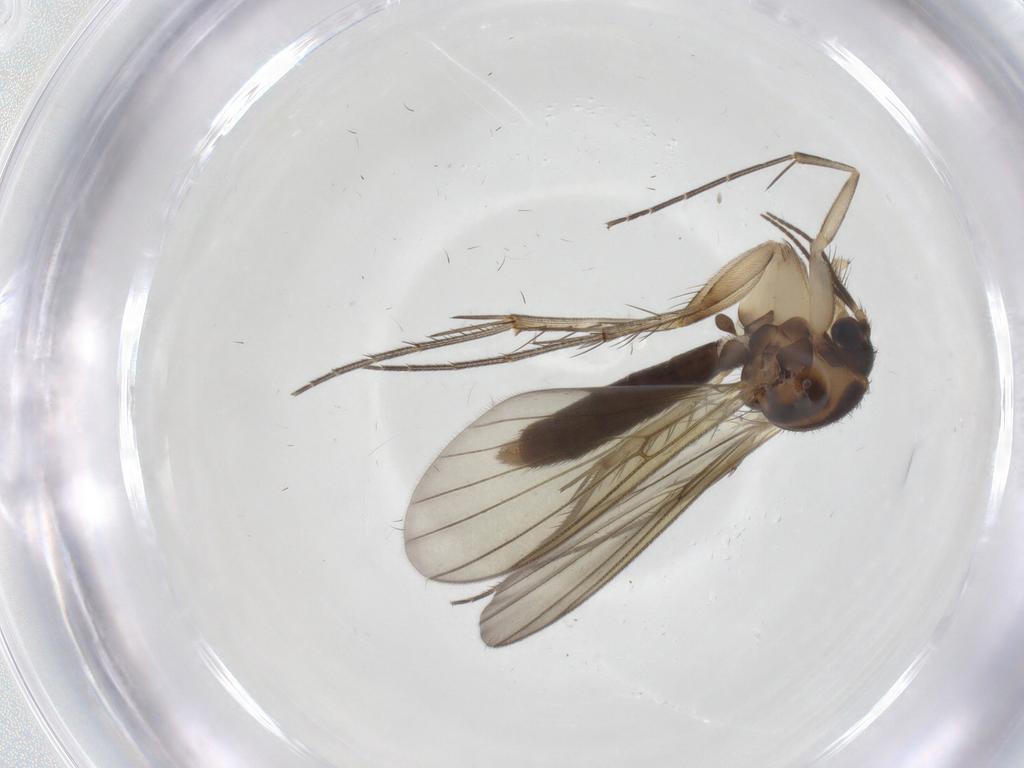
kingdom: Animalia
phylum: Arthropoda
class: Insecta
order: Diptera
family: Mycetophilidae
